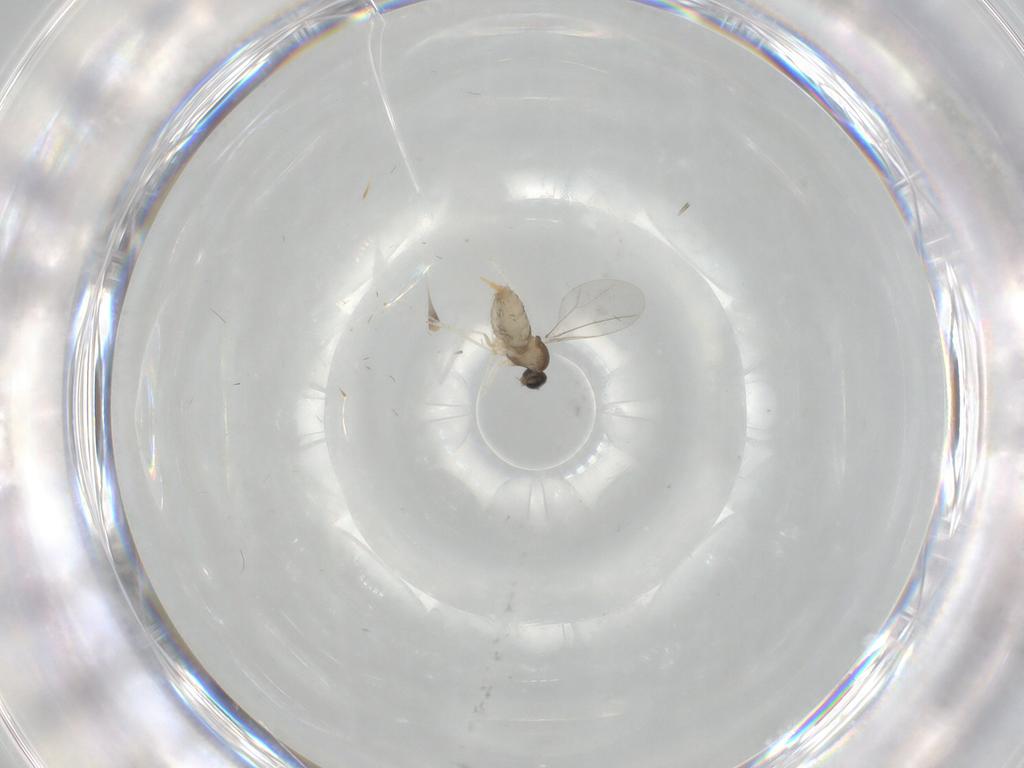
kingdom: Animalia
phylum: Arthropoda
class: Insecta
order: Diptera
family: Cecidomyiidae
